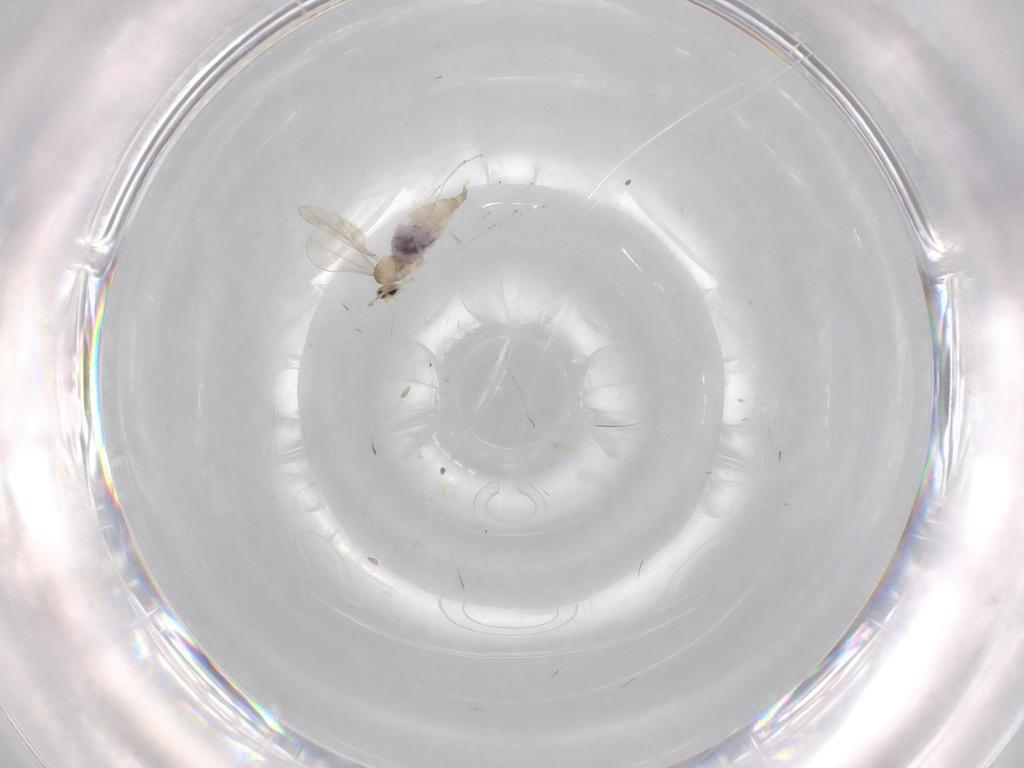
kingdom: Animalia
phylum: Arthropoda
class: Insecta
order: Diptera
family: Cecidomyiidae
